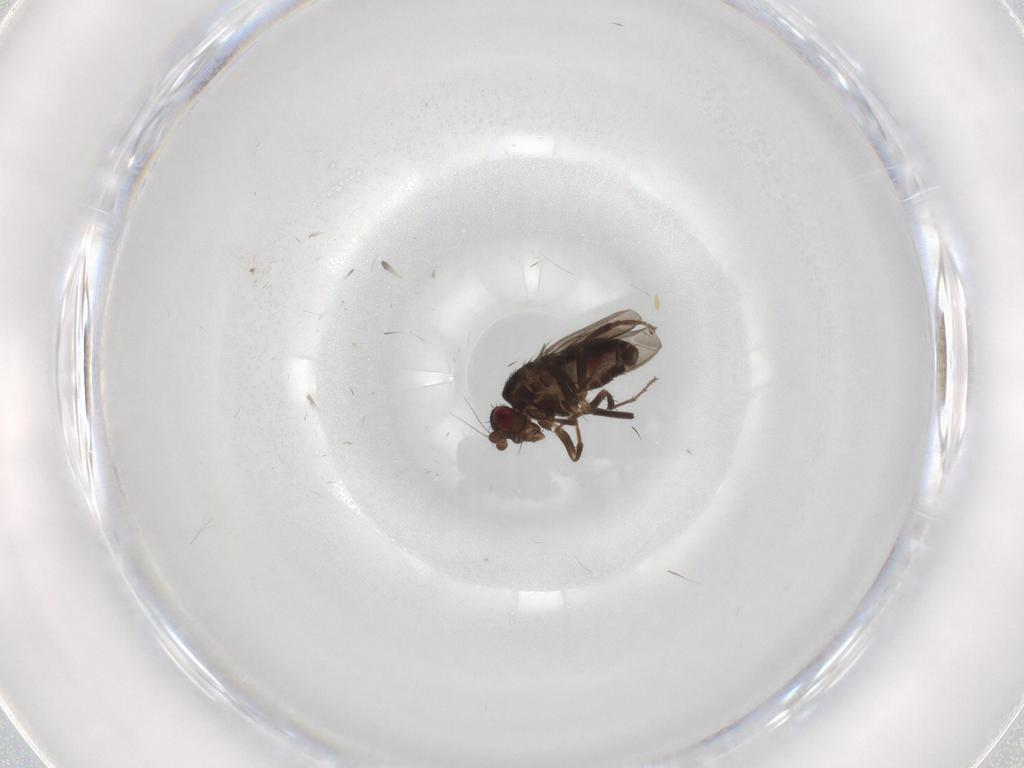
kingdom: Animalia
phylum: Arthropoda
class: Insecta
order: Diptera
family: Sphaeroceridae
